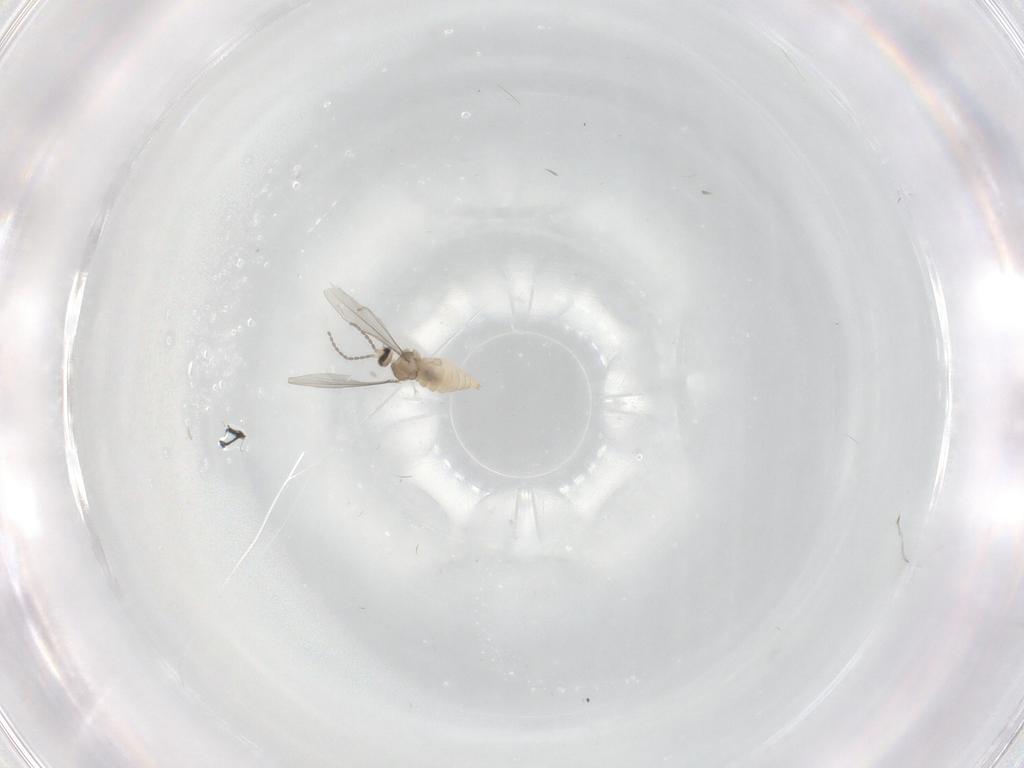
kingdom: Animalia
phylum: Arthropoda
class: Insecta
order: Diptera
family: Cecidomyiidae
